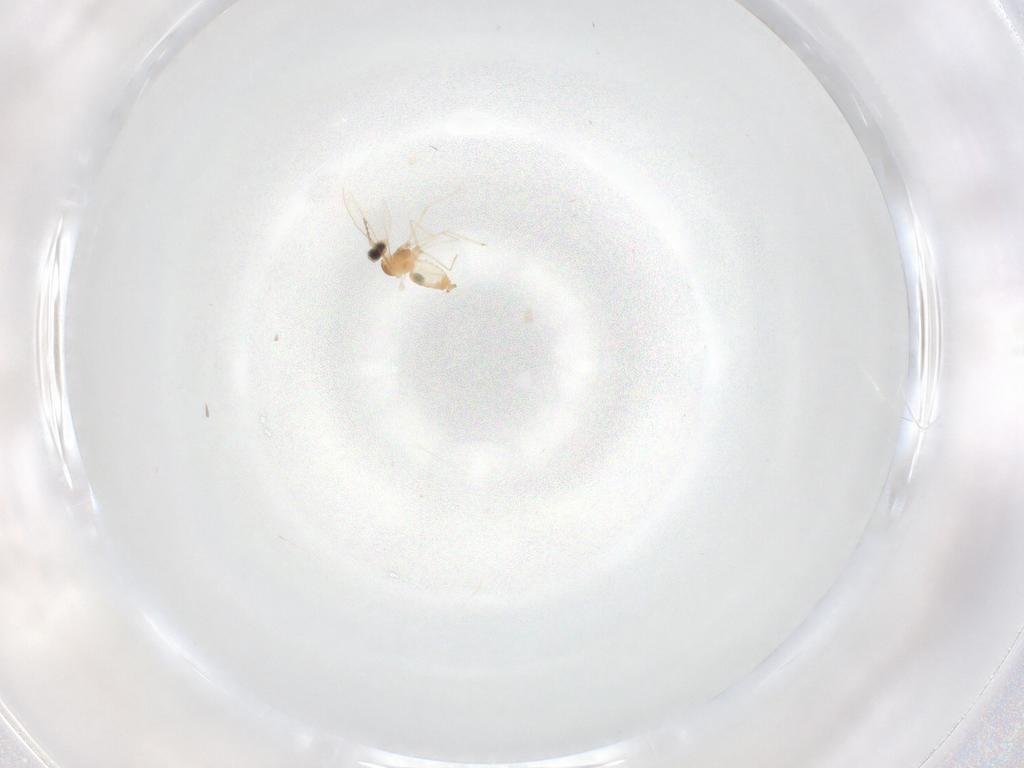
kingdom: Animalia
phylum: Arthropoda
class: Insecta
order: Diptera
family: Cecidomyiidae
